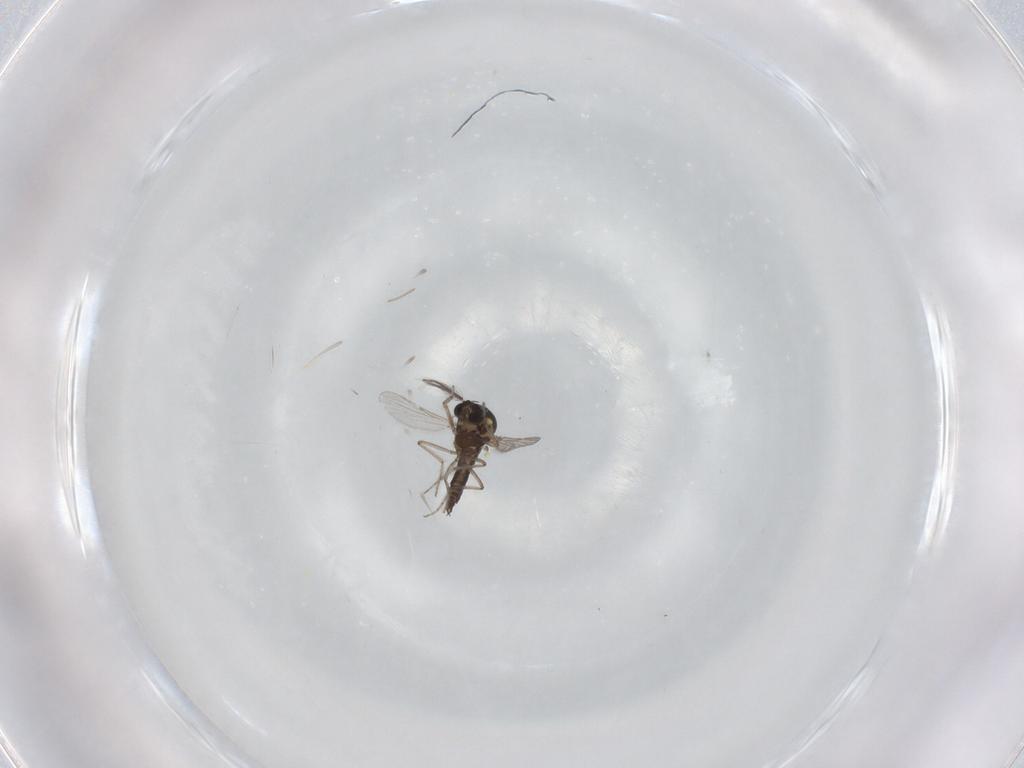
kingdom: Animalia
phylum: Arthropoda
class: Insecta
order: Diptera
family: Ceratopogonidae
